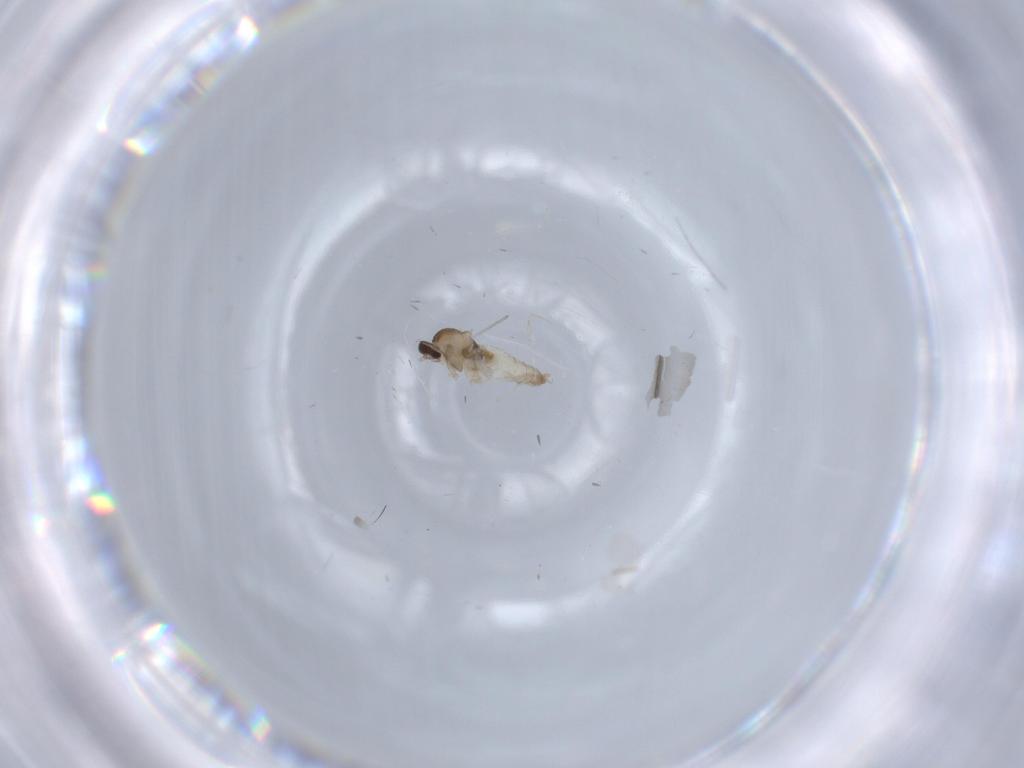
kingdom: Animalia
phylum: Arthropoda
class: Insecta
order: Diptera
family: Cecidomyiidae
